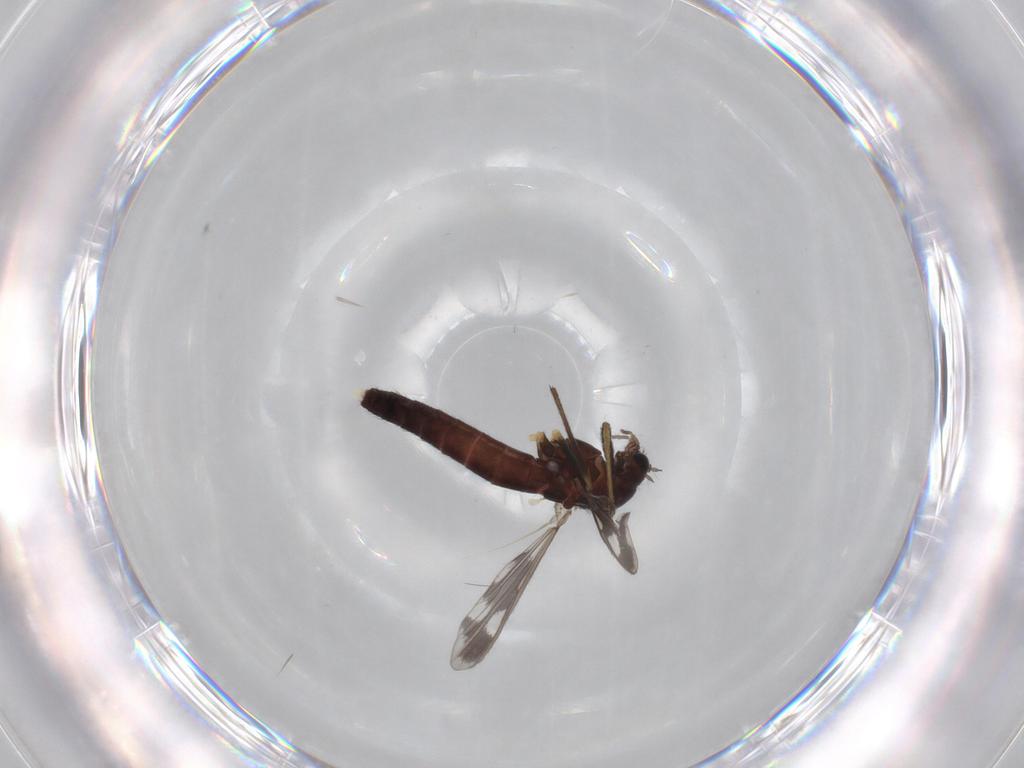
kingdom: Animalia
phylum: Arthropoda
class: Insecta
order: Diptera
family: Chironomidae
